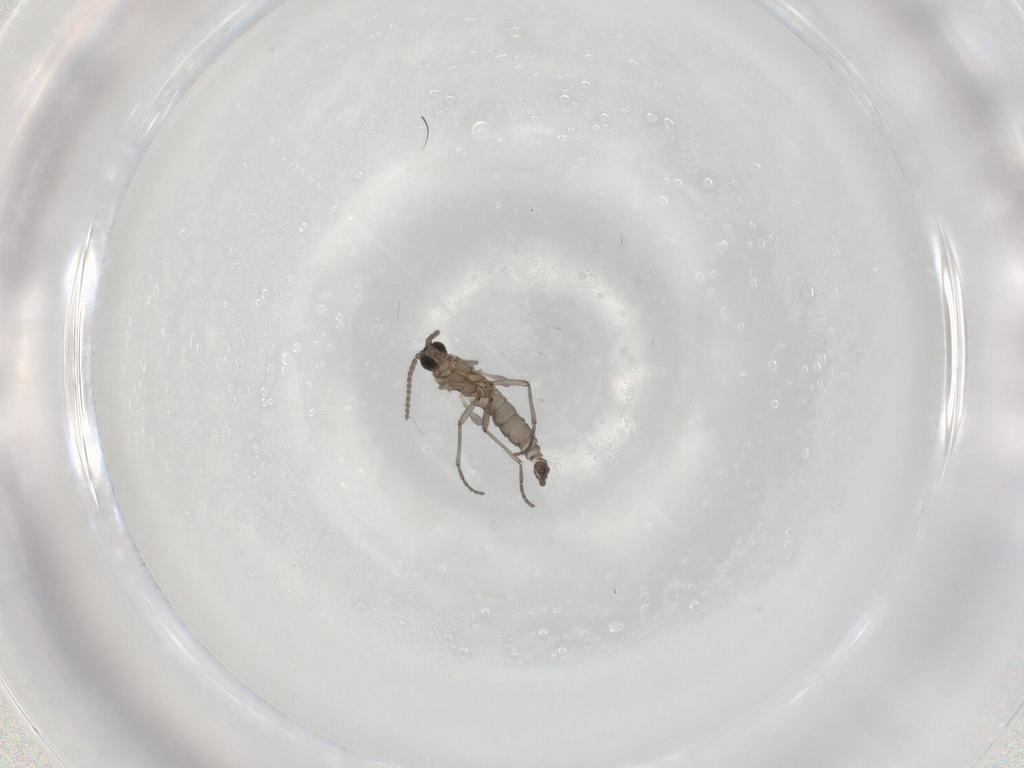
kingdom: Animalia
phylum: Arthropoda
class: Insecta
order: Diptera
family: Sciaridae
